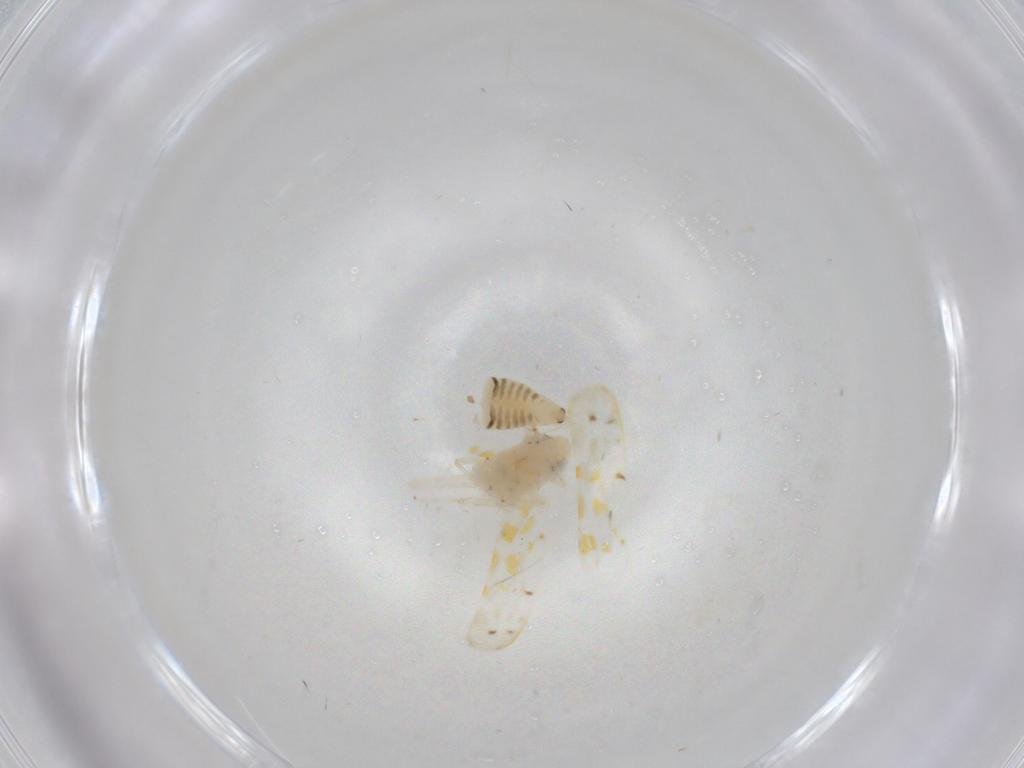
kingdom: Animalia
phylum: Arthropoda
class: Insecta
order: Hemiptera
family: Cicadellidae
